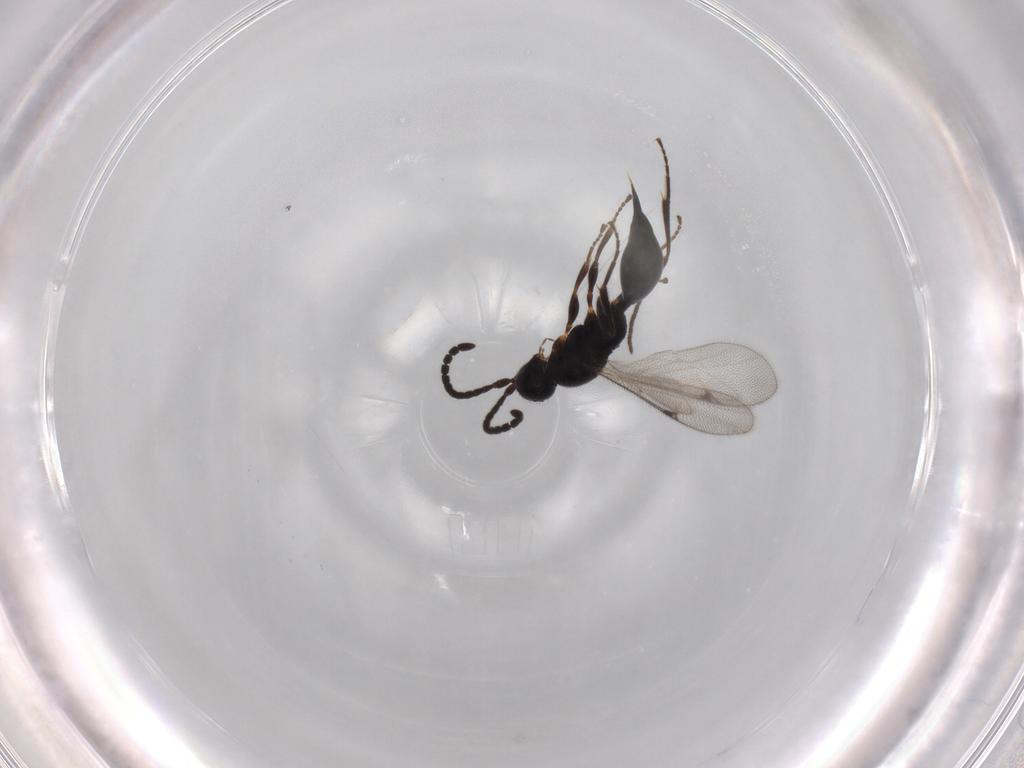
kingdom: Animalia
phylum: Arthropoda
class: Insecta
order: Hymenoptera
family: Proctotrupidae
